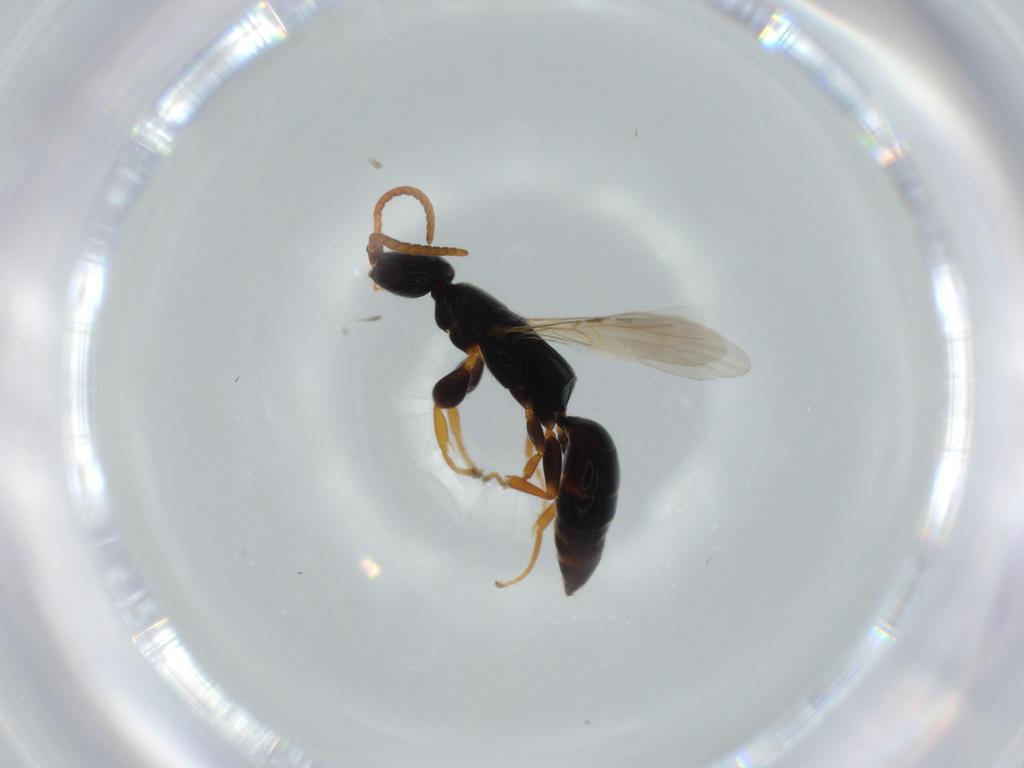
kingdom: Animalia
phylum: Arthropoda
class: Insecta
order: Hymenoptera
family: Bethylidae
